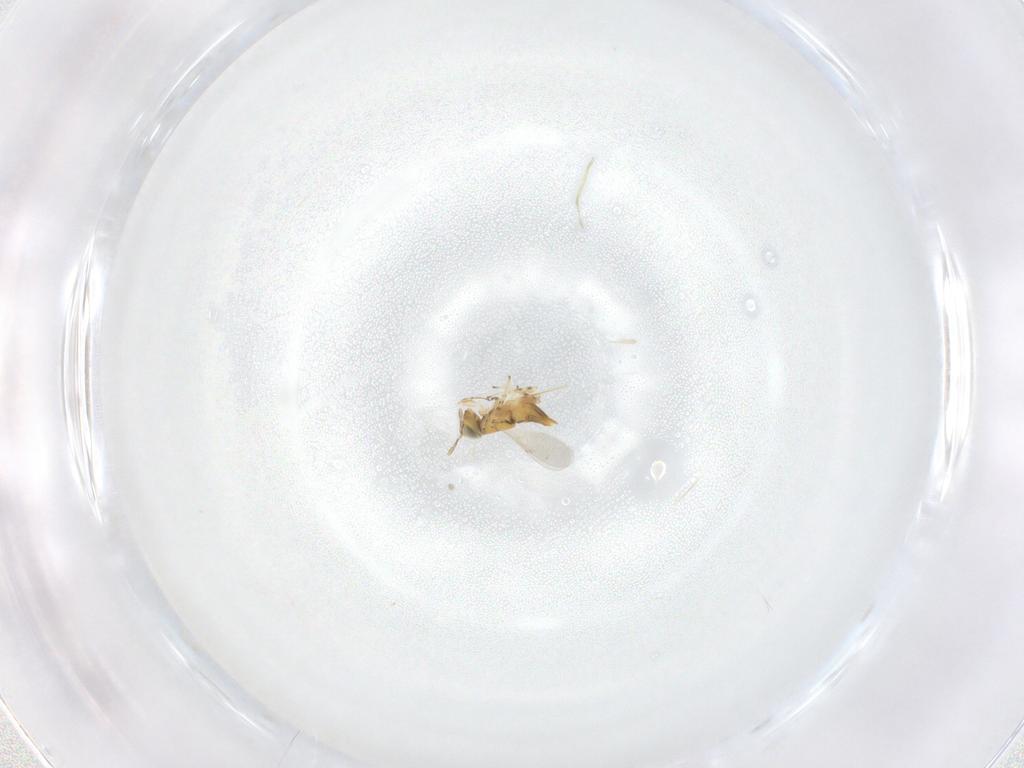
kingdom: Animalia
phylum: Arthropoda
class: Insecta
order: Hymenoptera
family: Encyrtidae
